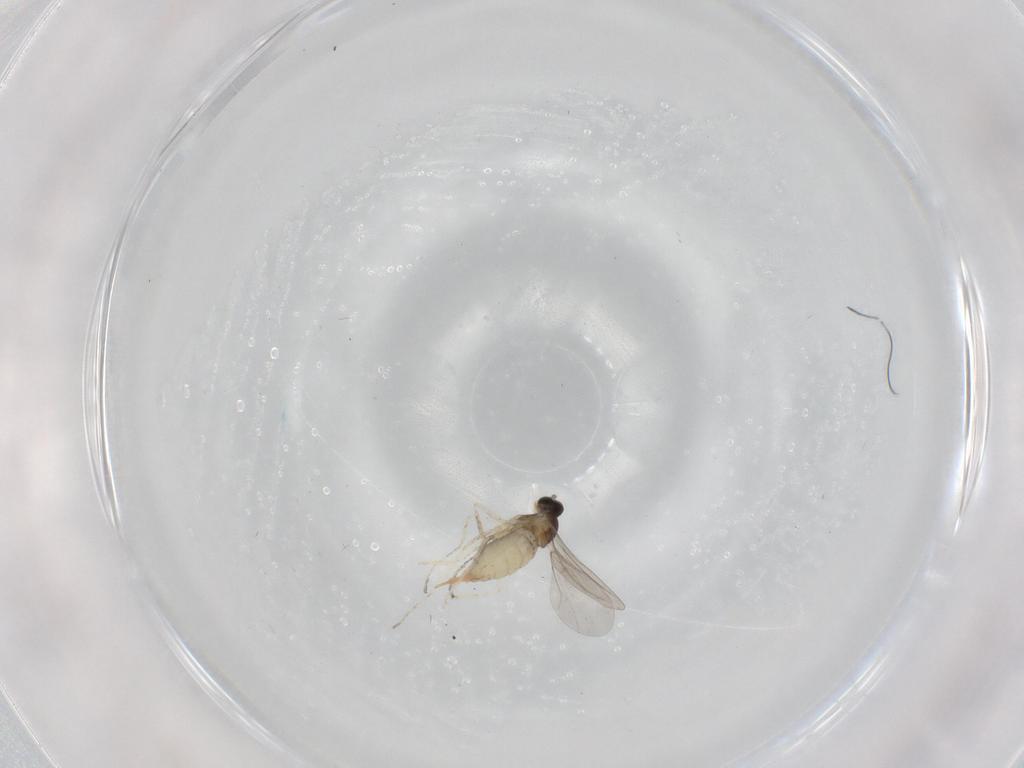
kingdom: Animalia
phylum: Arthropoda
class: Insecta
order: Diptera
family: Cecidomyiidae
